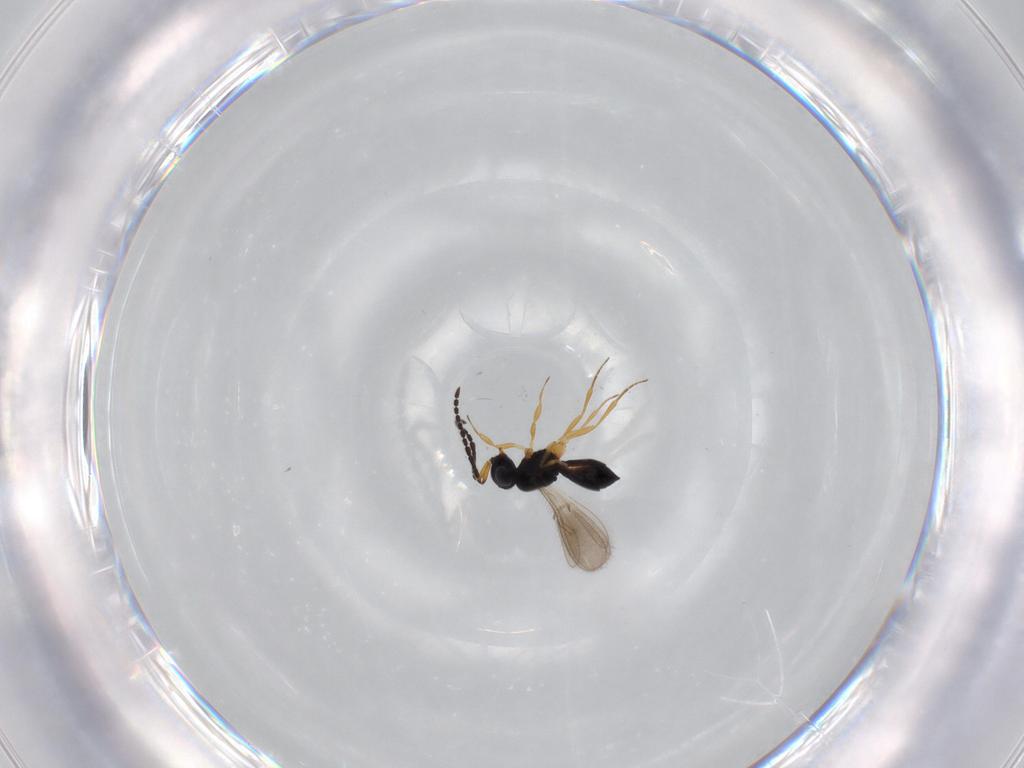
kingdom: Animalia
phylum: Arthropoda
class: Insecta
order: Hymenoptera
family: Scelionidae
